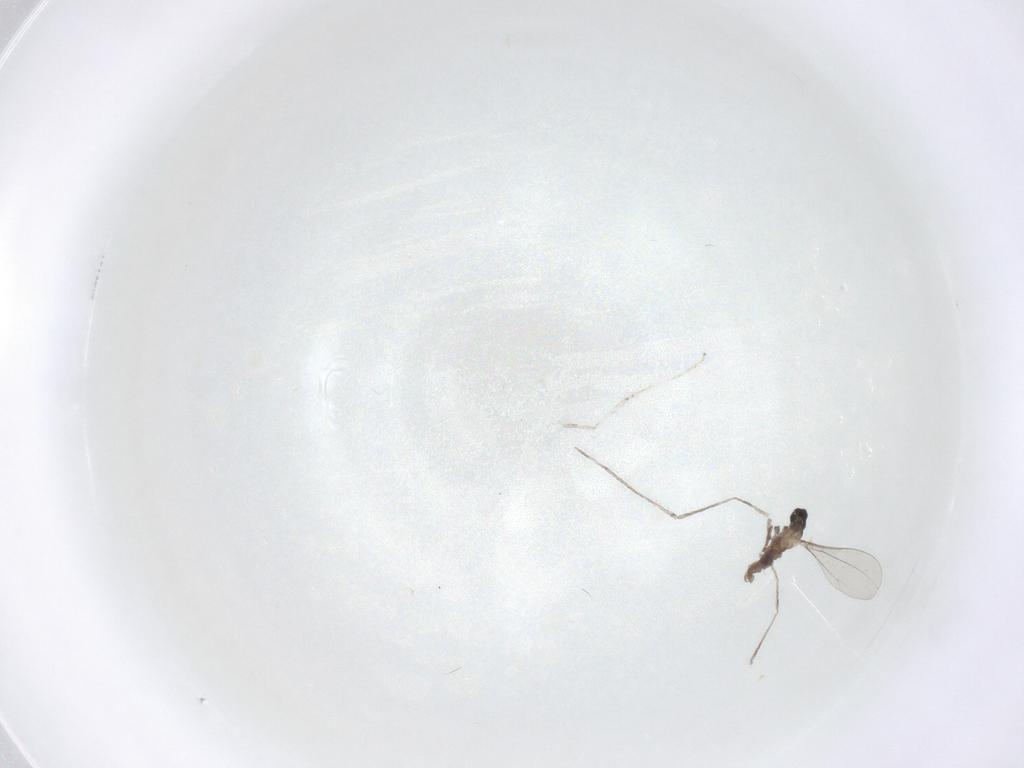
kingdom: Animalia
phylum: Arthropoda
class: Insecta
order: Diptera
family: Cecidomyiidae
